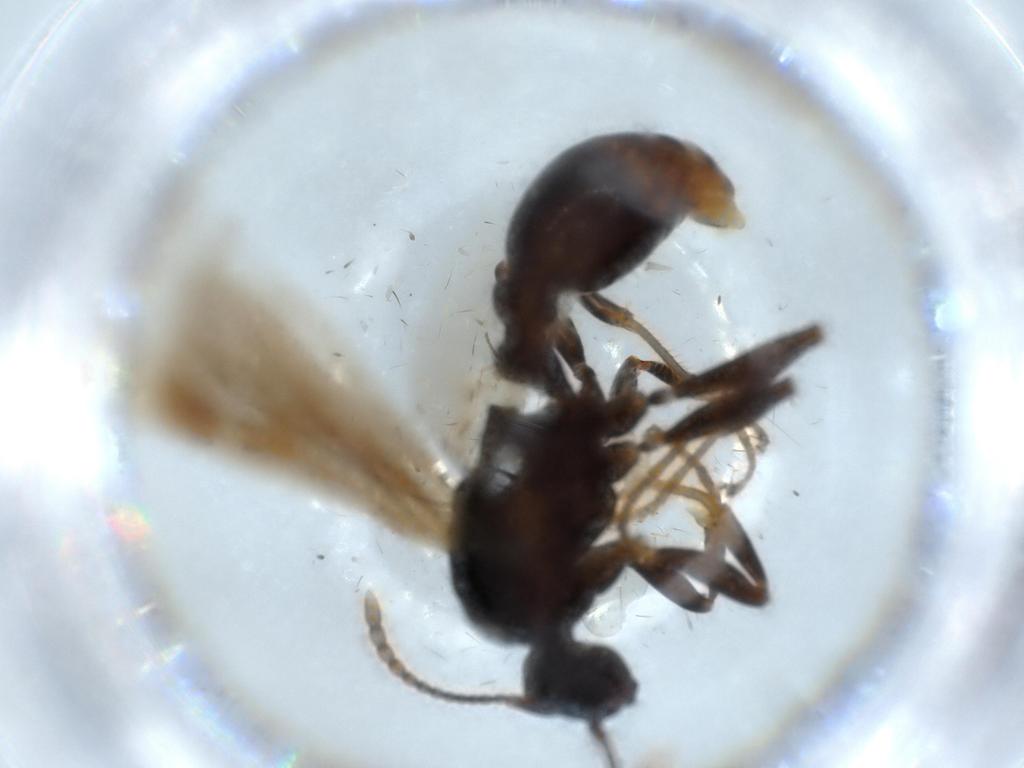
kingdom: Animalia
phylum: Arthropoda
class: Insecta
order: Hymenoptera
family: Formicidae
